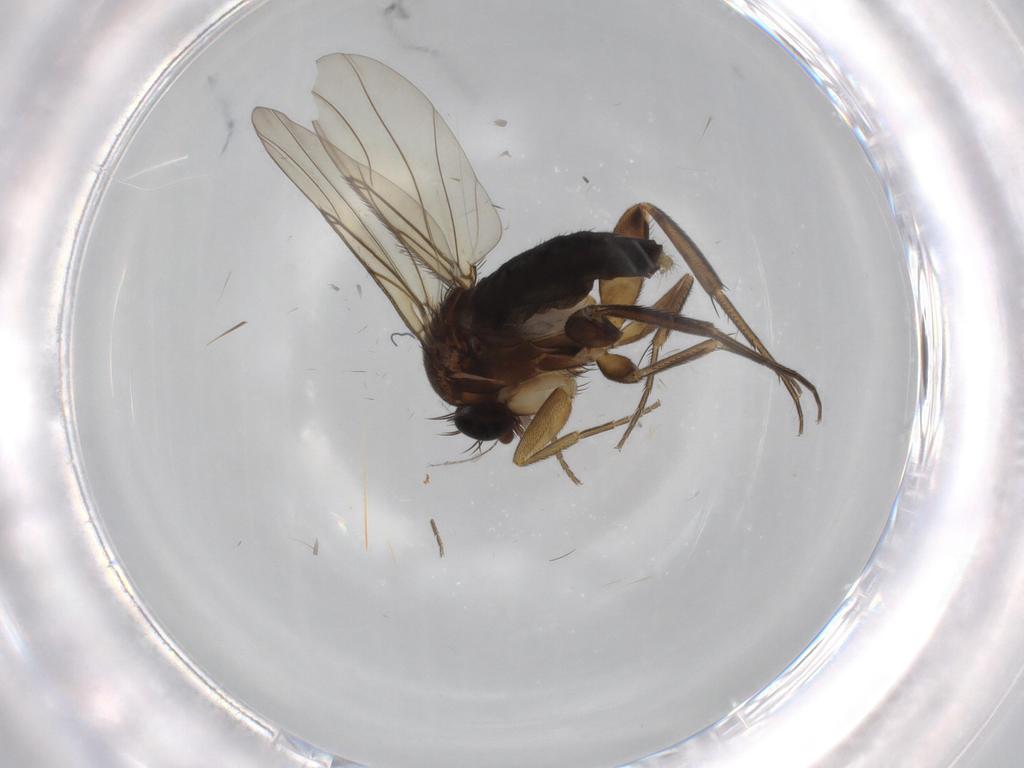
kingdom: Animalia
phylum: Arthropoda
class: Insecta
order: Diptera
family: Phoridae
